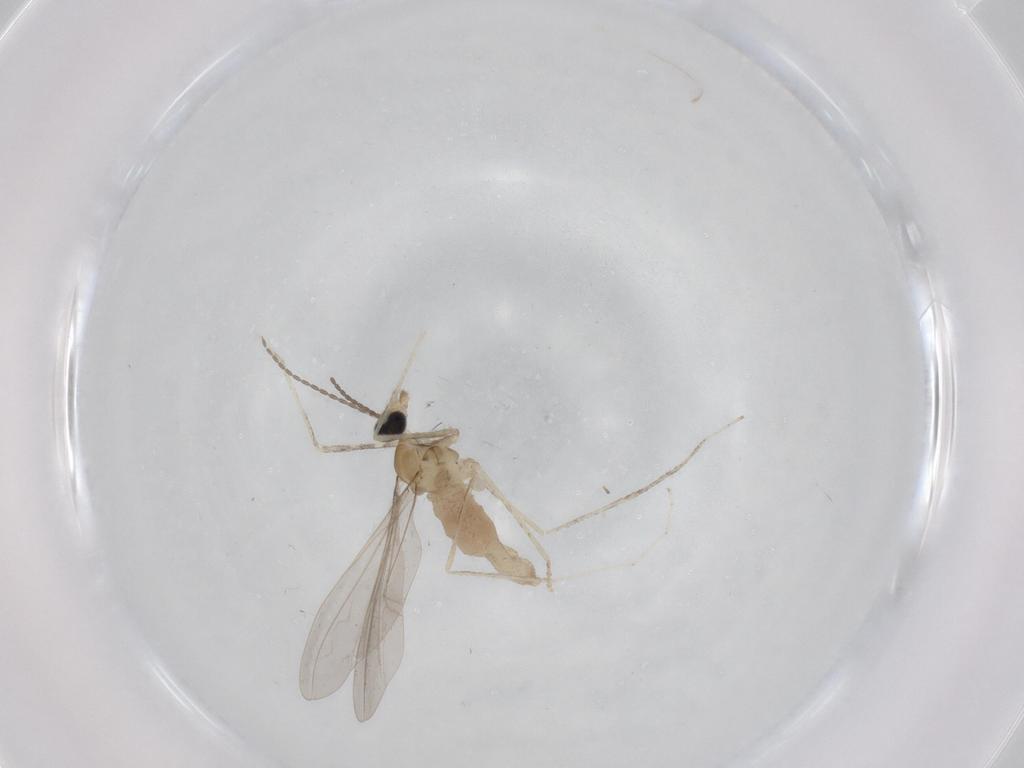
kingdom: Animalia
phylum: Arthropoda
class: Insecta
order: Diptera
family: Cecidomyiidae
